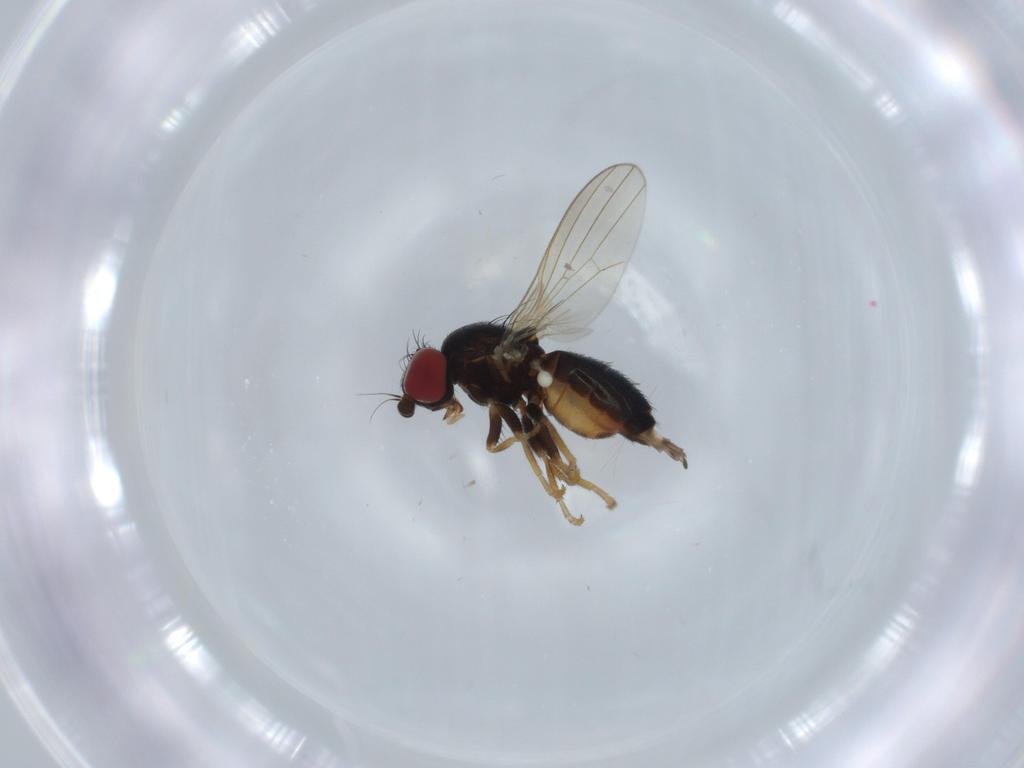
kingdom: Animalia
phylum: Arthropoda
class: Insecta
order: Diptera
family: Chamaemyiidae
